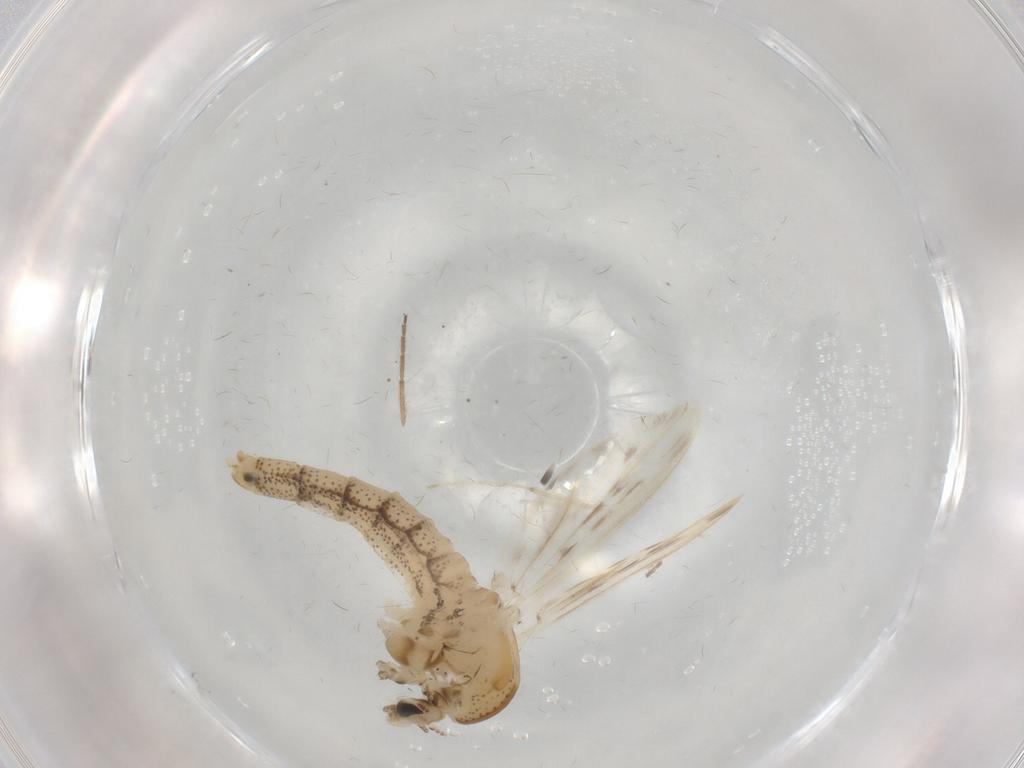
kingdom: Animalia
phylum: Arthropoda
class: Insecta
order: Diptera
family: Chaoboridae
